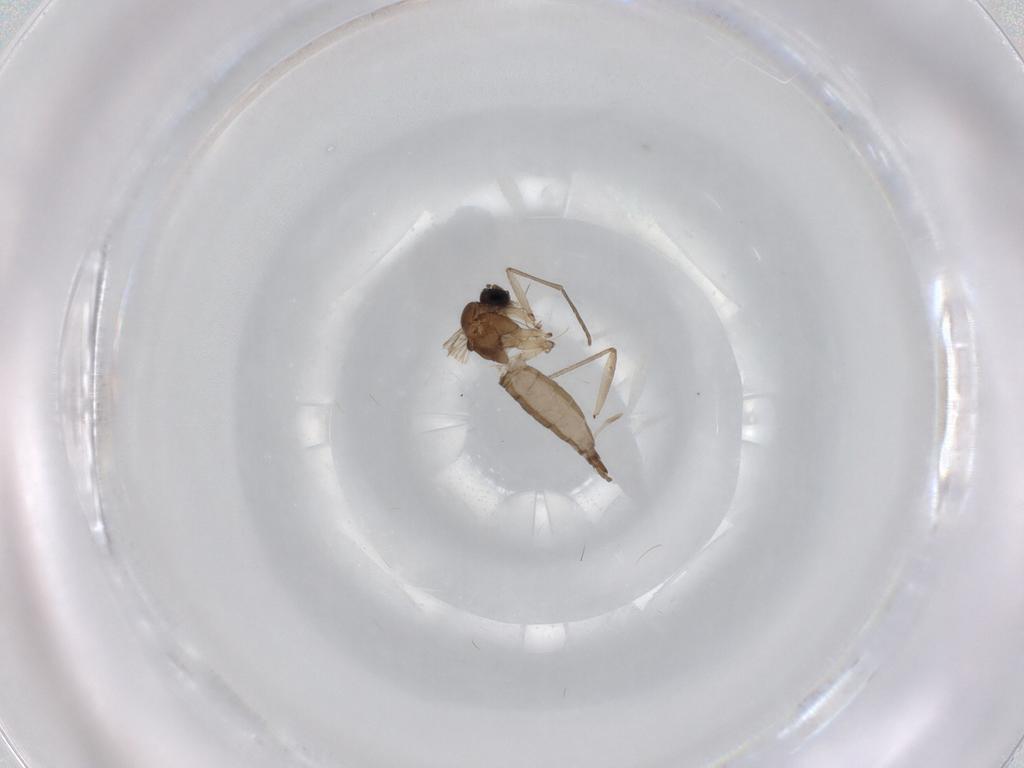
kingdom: Animalia
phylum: Arthropoda
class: Insecta
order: Diptera
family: Sciaridae
